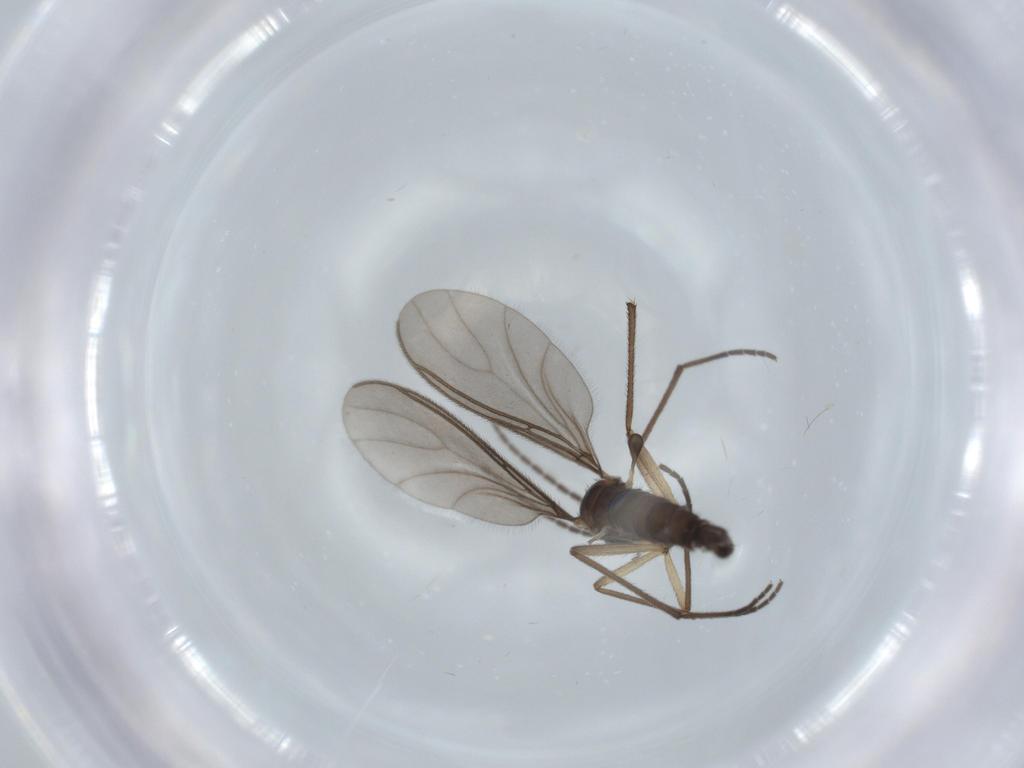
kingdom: Animalia
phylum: Arthropoda
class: Insecta
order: Diptera
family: Sciaridae
